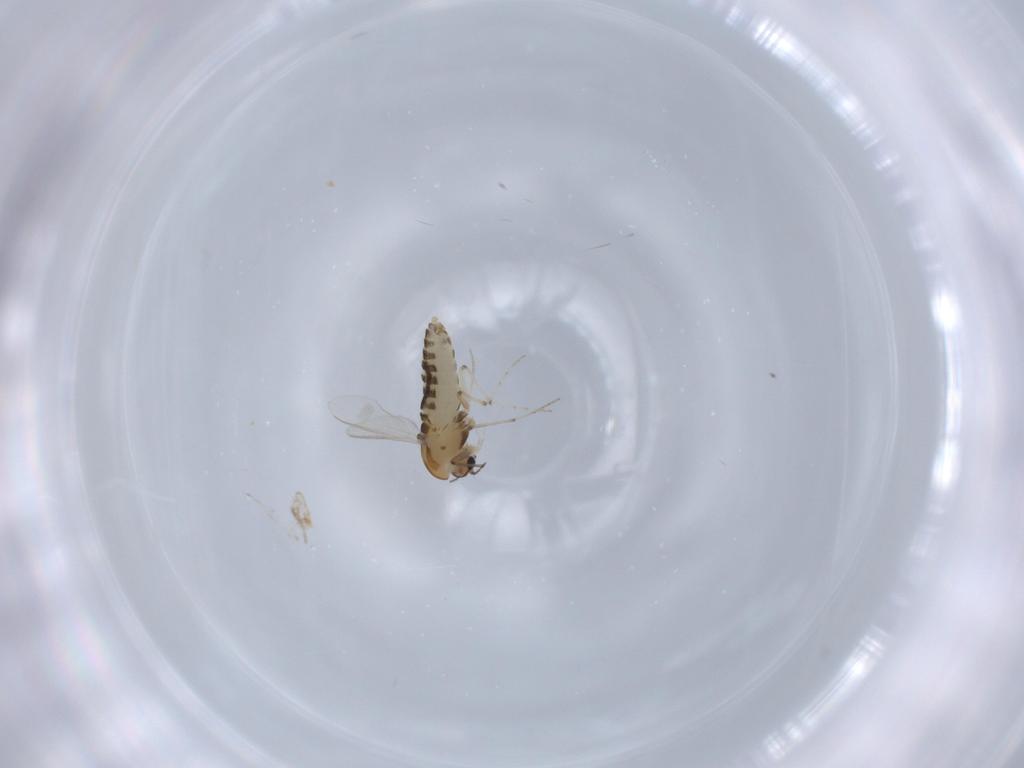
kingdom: Animalia
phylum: Arthropoda
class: Insecta
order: Diptera
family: Chironomidae
